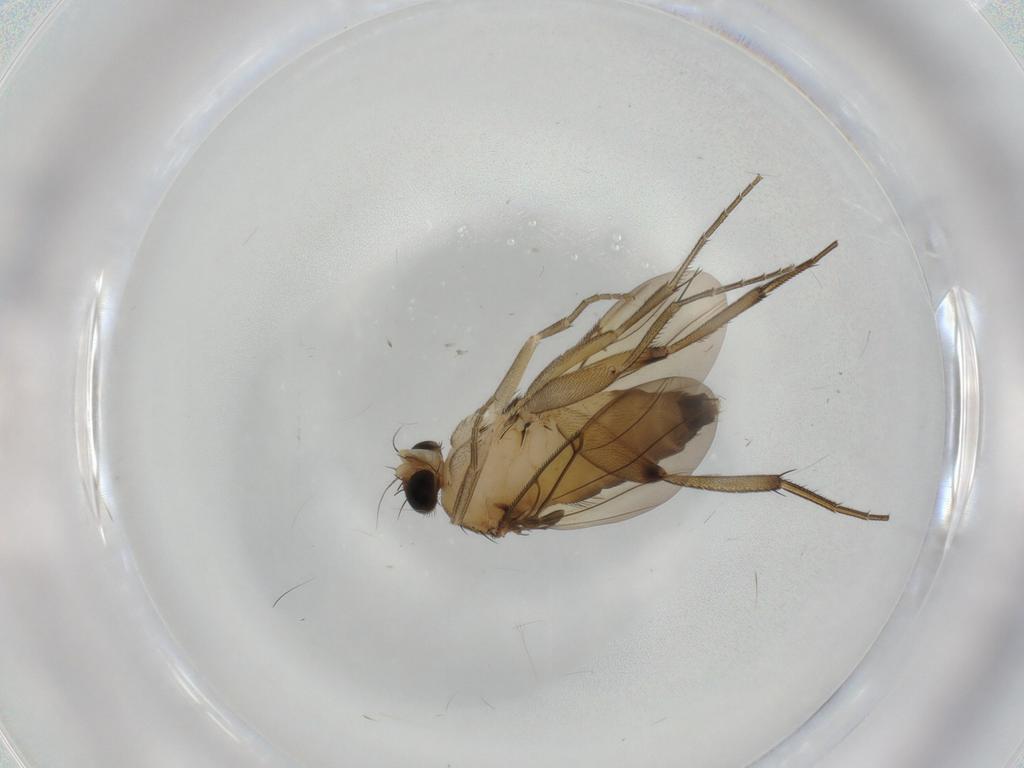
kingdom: Animalia
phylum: Arthropoda
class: Insecta
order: Diptera
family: Phoridae
